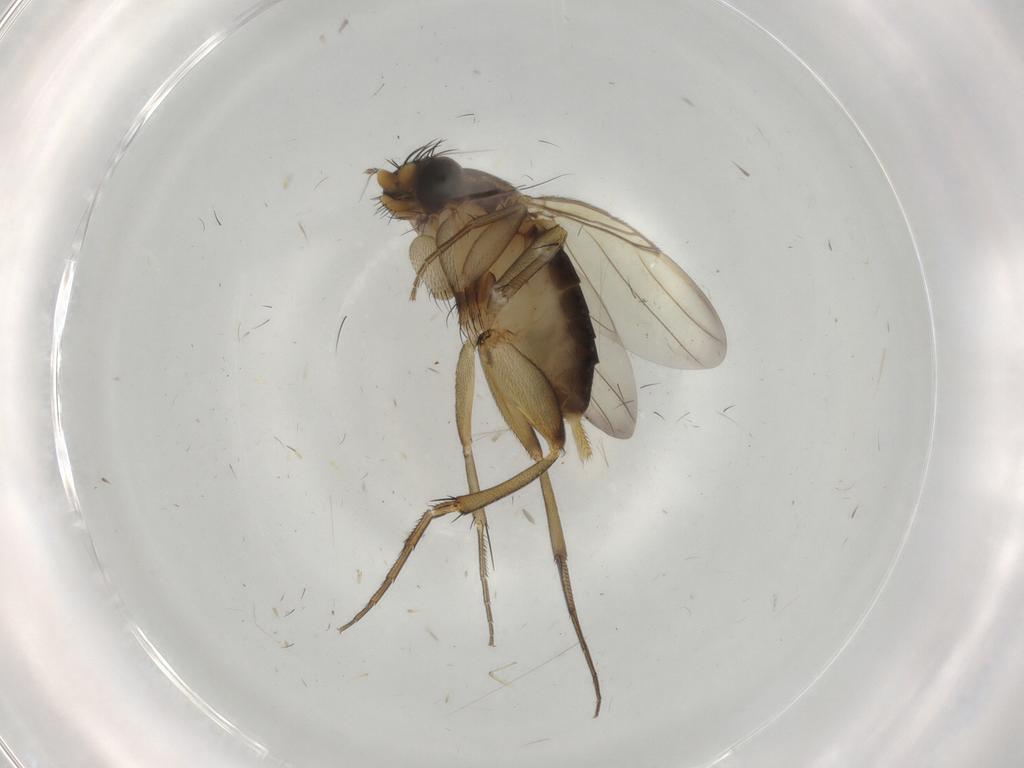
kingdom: Animalia
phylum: Arthropoda
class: Insecta
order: Diptera
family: Phoridae
